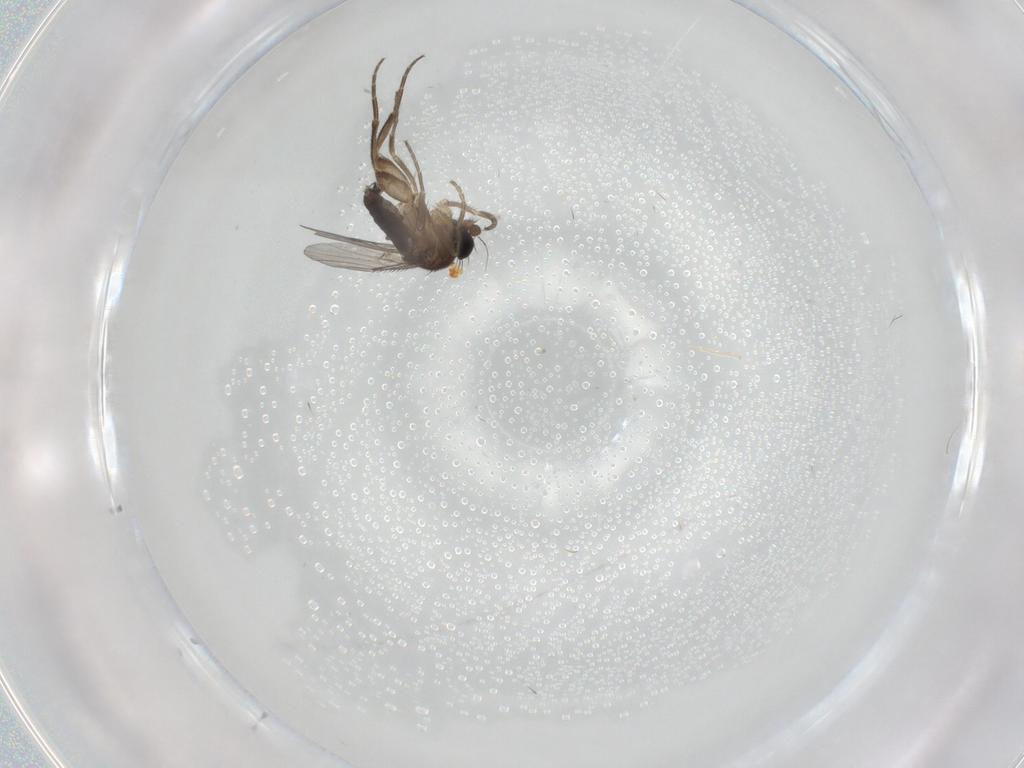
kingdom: Animalia
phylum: Arthropoda
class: Insecta
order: Diptera
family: Phoridae
